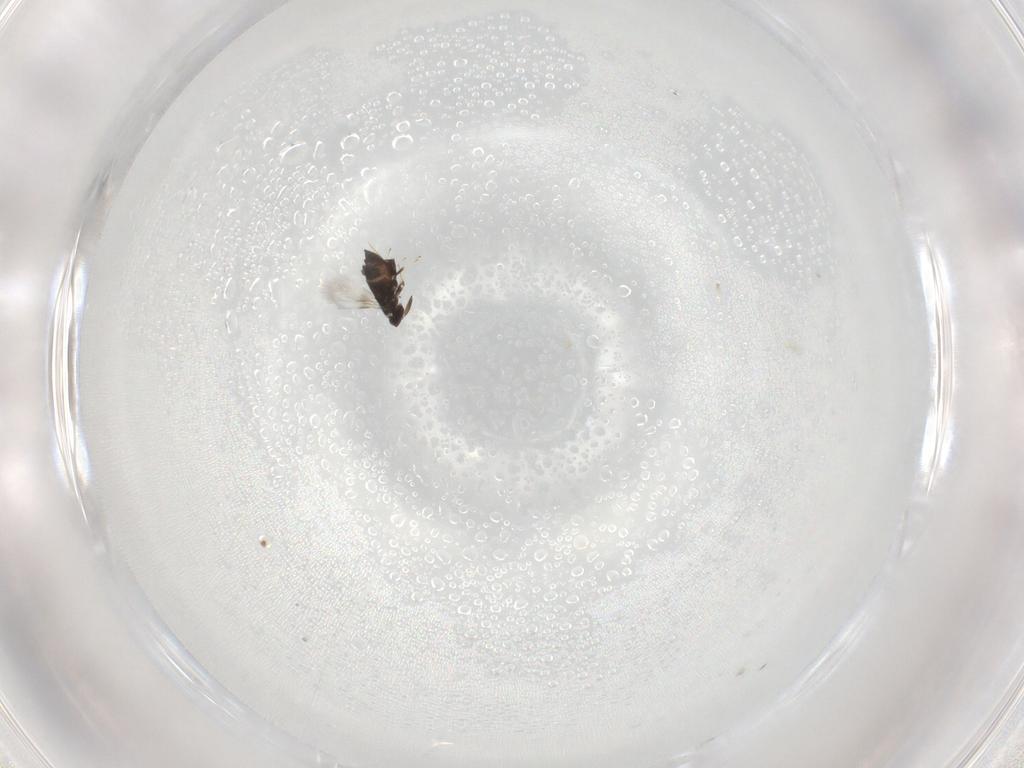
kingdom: Animalia
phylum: Arthropoda
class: Insecta
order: Hymenoptera
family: Signiphoridae
